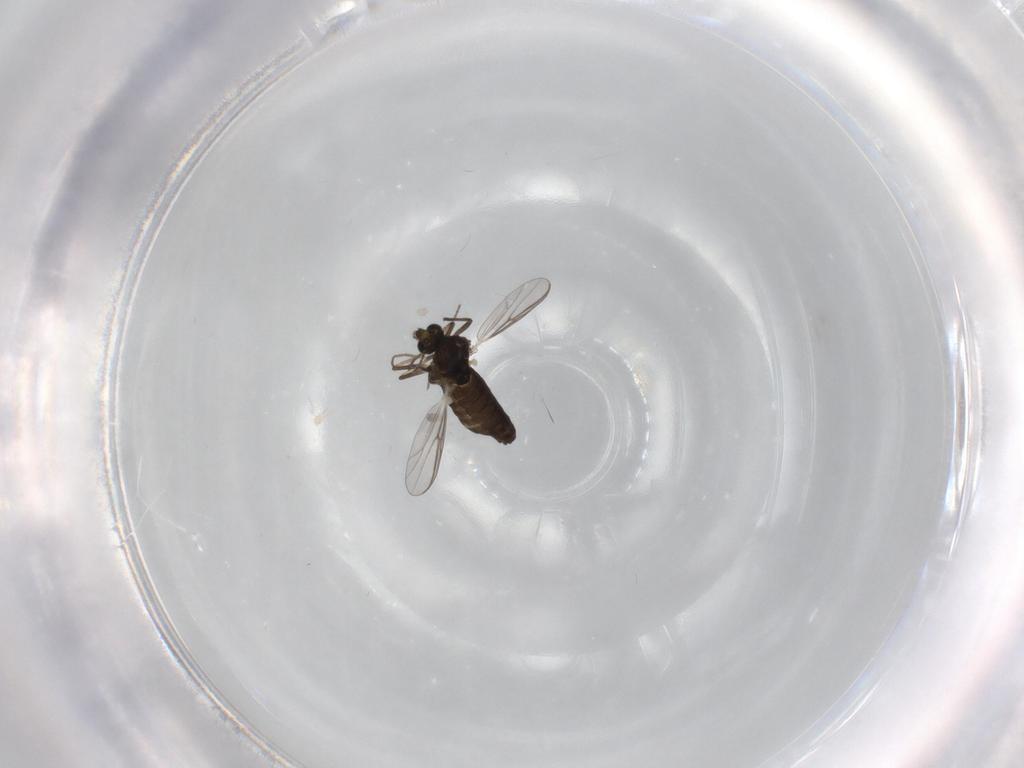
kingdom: Animalia
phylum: Arthropoda
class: Insecta
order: Diptera
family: Chironomidae
